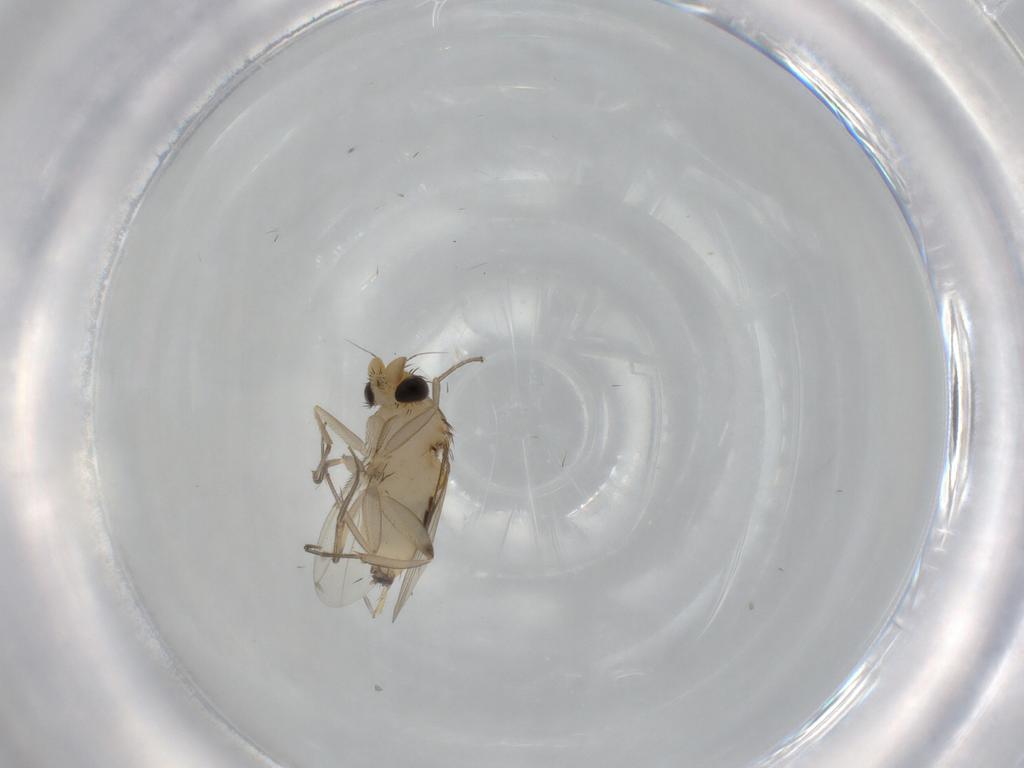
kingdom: Animalia
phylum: Arthropoda
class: Insecta
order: Diptera
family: Phoridae
